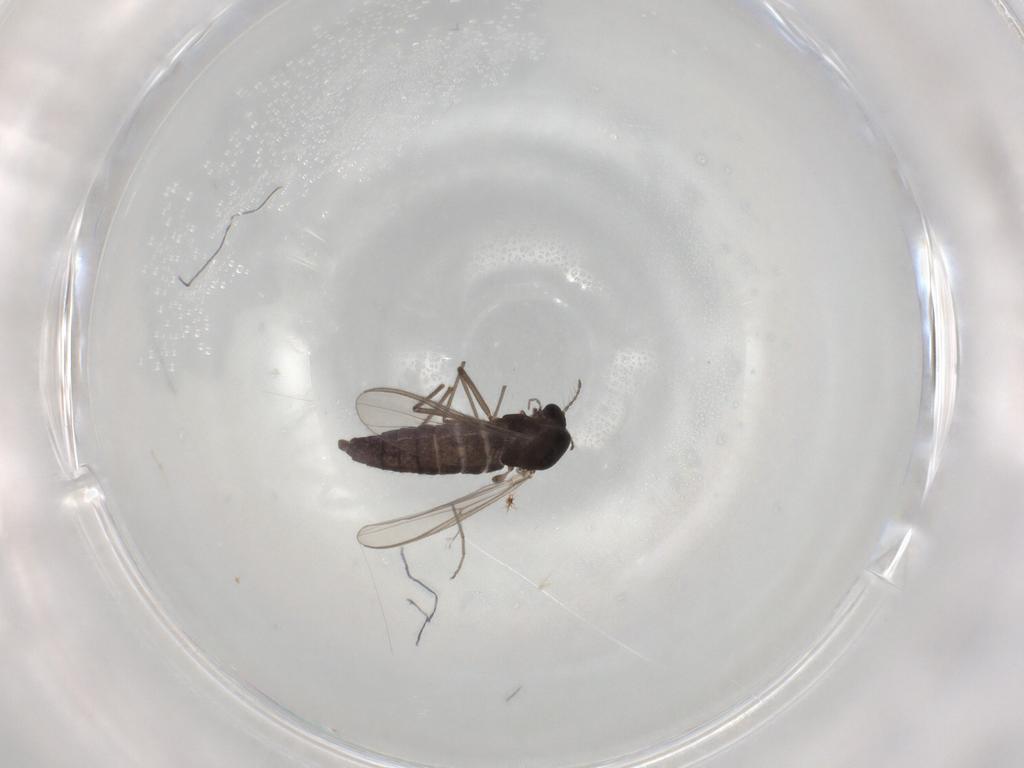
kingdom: Animalia
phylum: Arthropoda
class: Insecta
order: Diptera
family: Chironomidae
